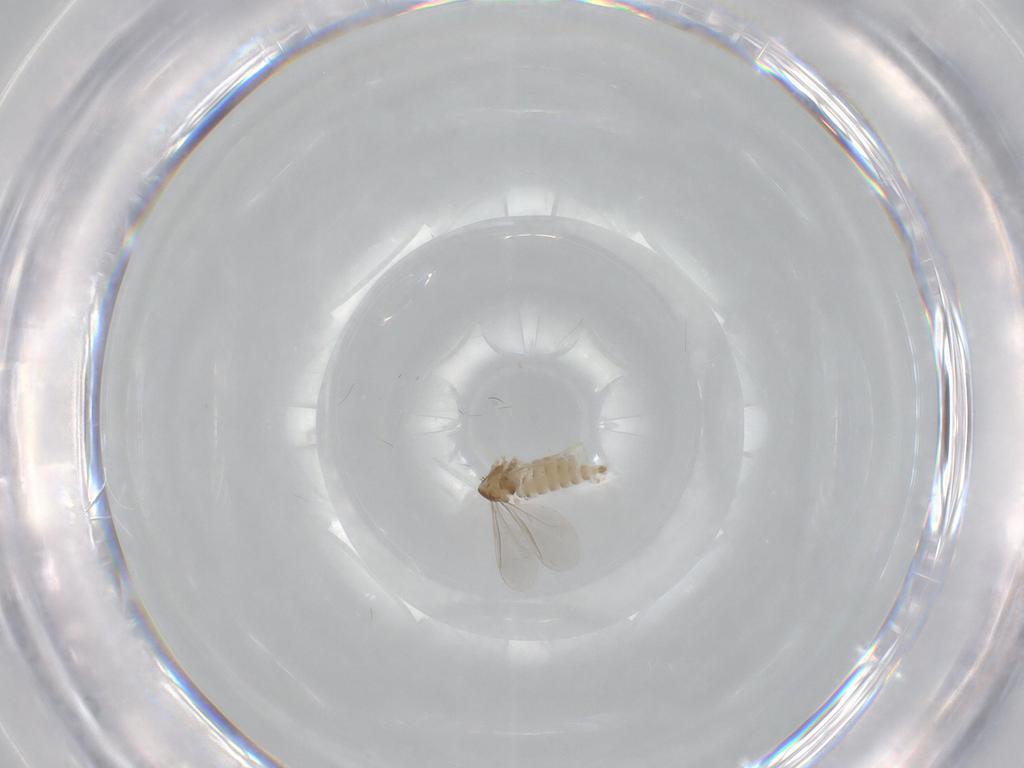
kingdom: Animalia
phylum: Arthropoda
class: Insecta
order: Diptera
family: Cecidomyiidae
